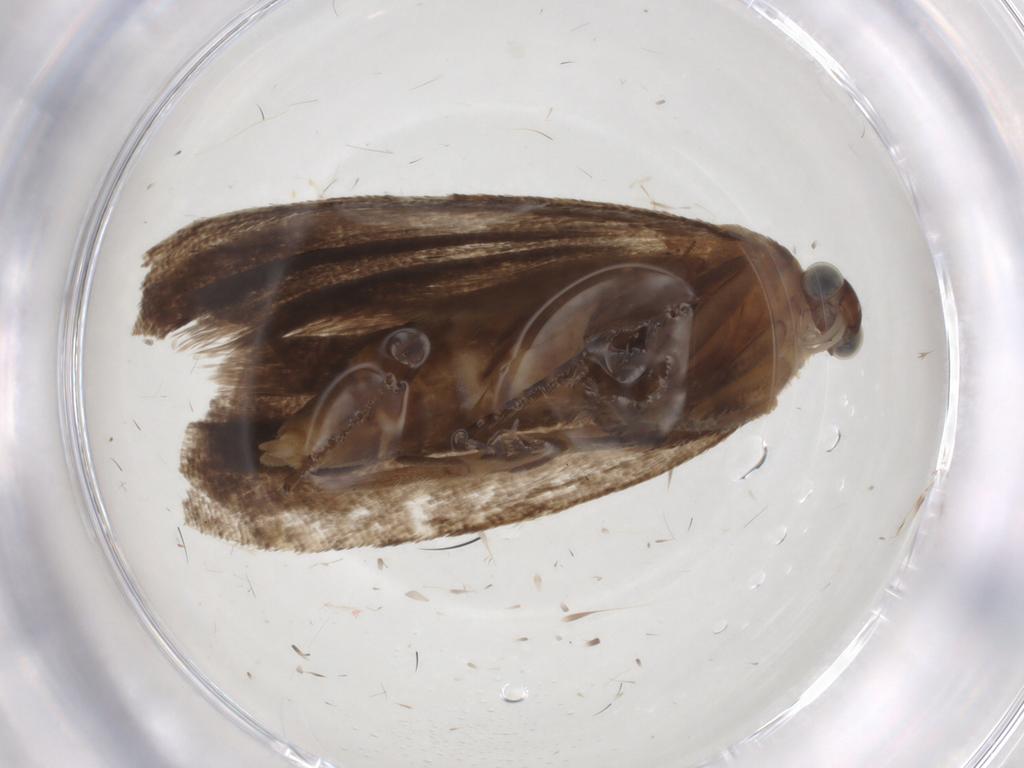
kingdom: Animalia
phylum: Arthropoda
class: Insecta
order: Lepidoptera
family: Tortricidae
